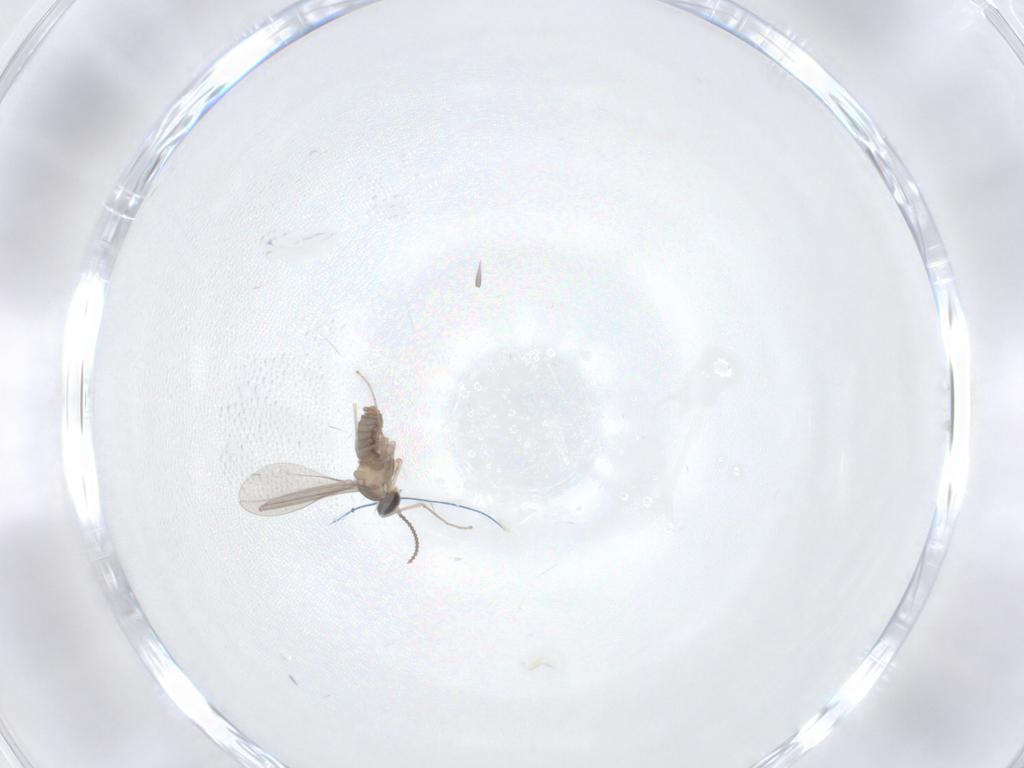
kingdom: Animalia
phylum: Arthropoda
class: Insecta
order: Diptera
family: Cecidomyiidae
